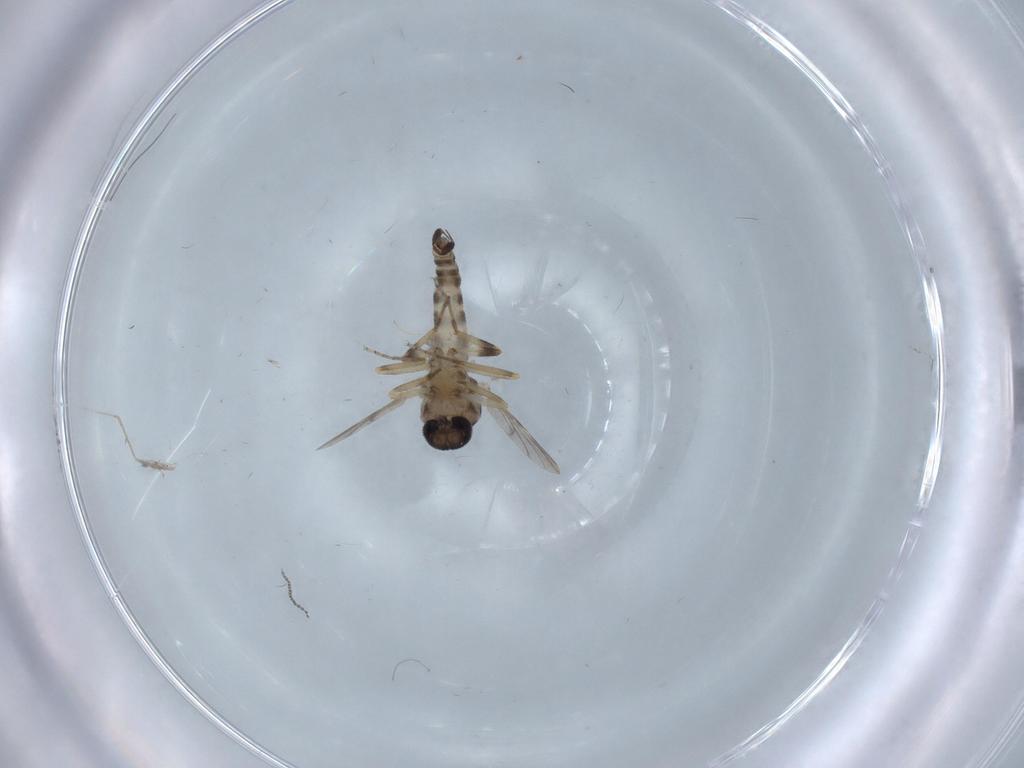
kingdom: Animalia
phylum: Arthropoda
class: Insecta
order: Diptera
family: Ceratopogonidae
